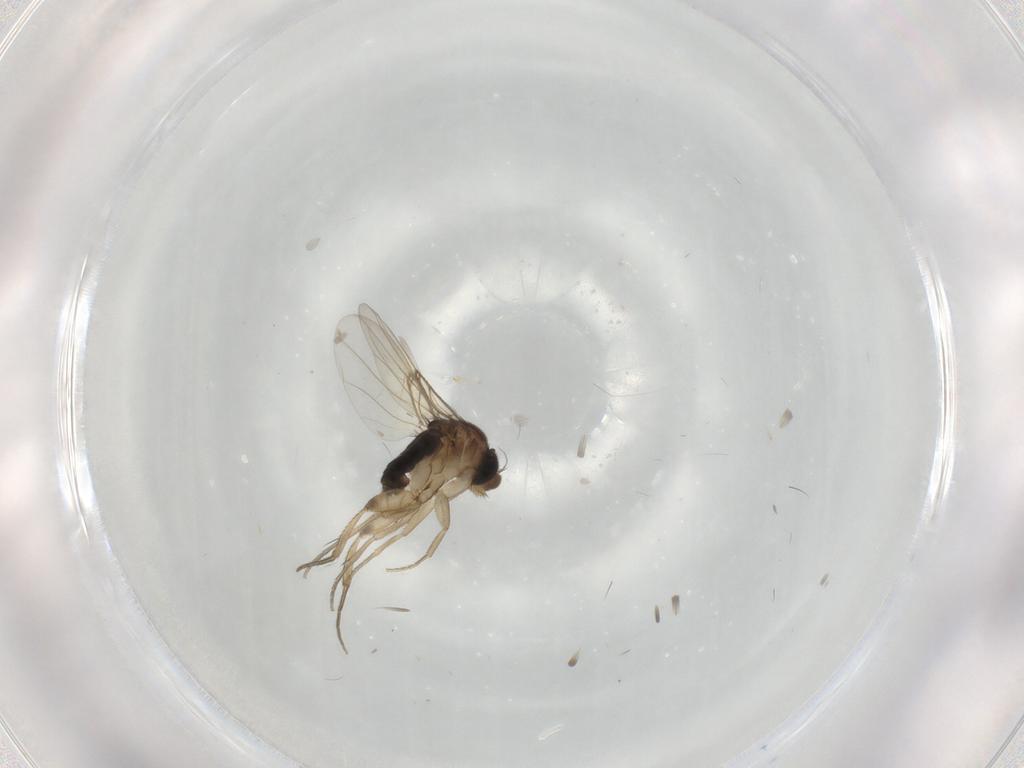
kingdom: Animalia
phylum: Arthropoda
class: Insecta
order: Diptera
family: Phoridae
